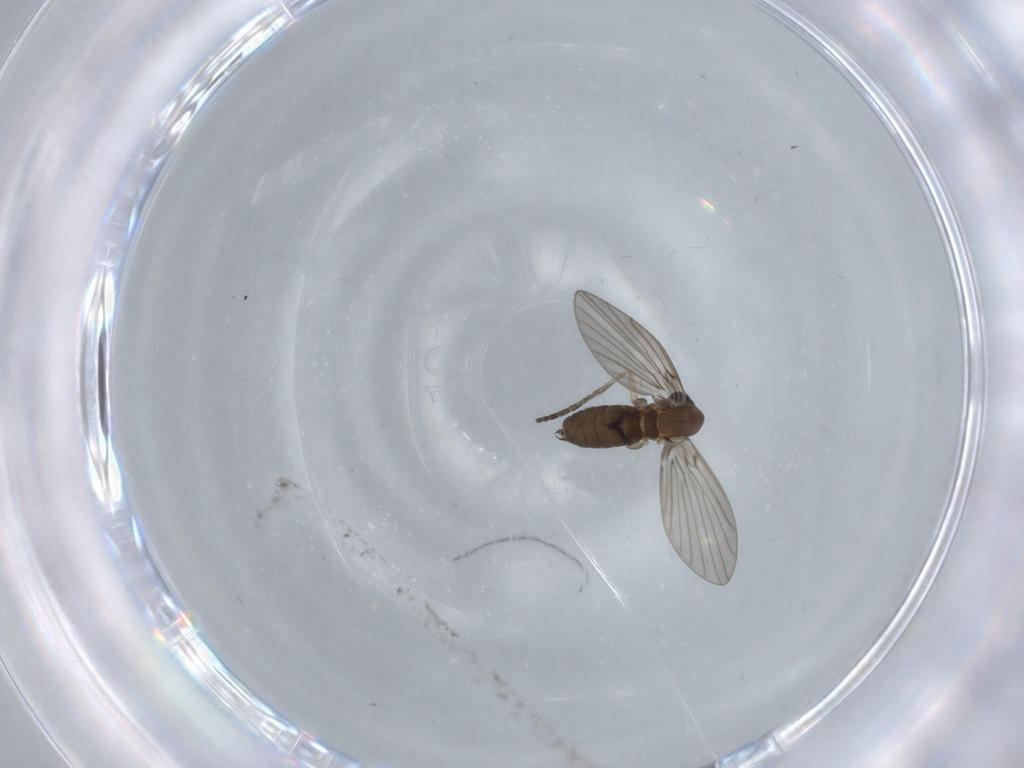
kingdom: Animalia
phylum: Arthropoda
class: Insecta
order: Diptera
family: Psychodidae
